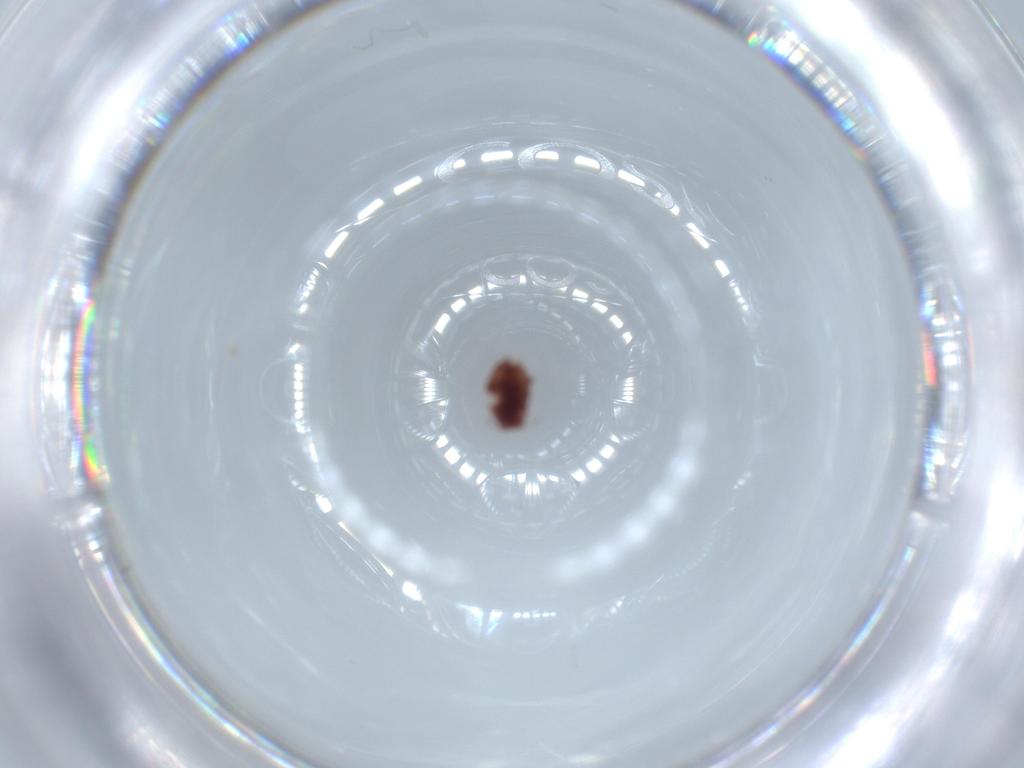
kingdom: Animalia
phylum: Arthropoda
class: Insecta
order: Hymenoptera
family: Scelionidae
